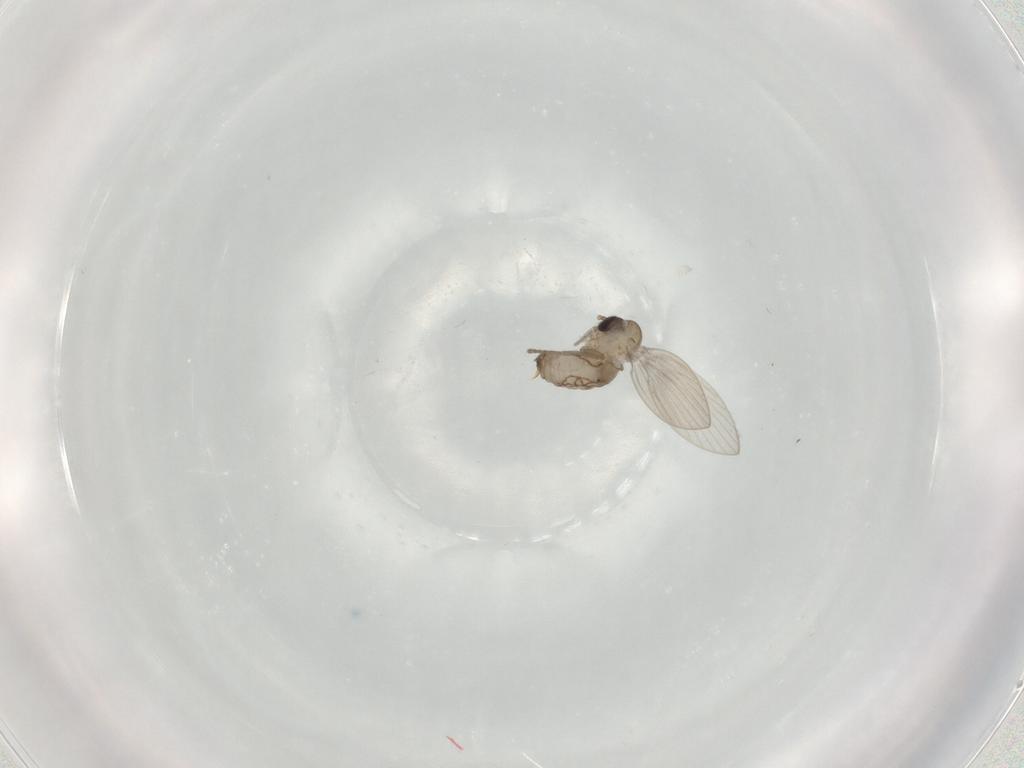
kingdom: Animalia
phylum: Arthropoda
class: Insecta
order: Diptera
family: Psychodidae
